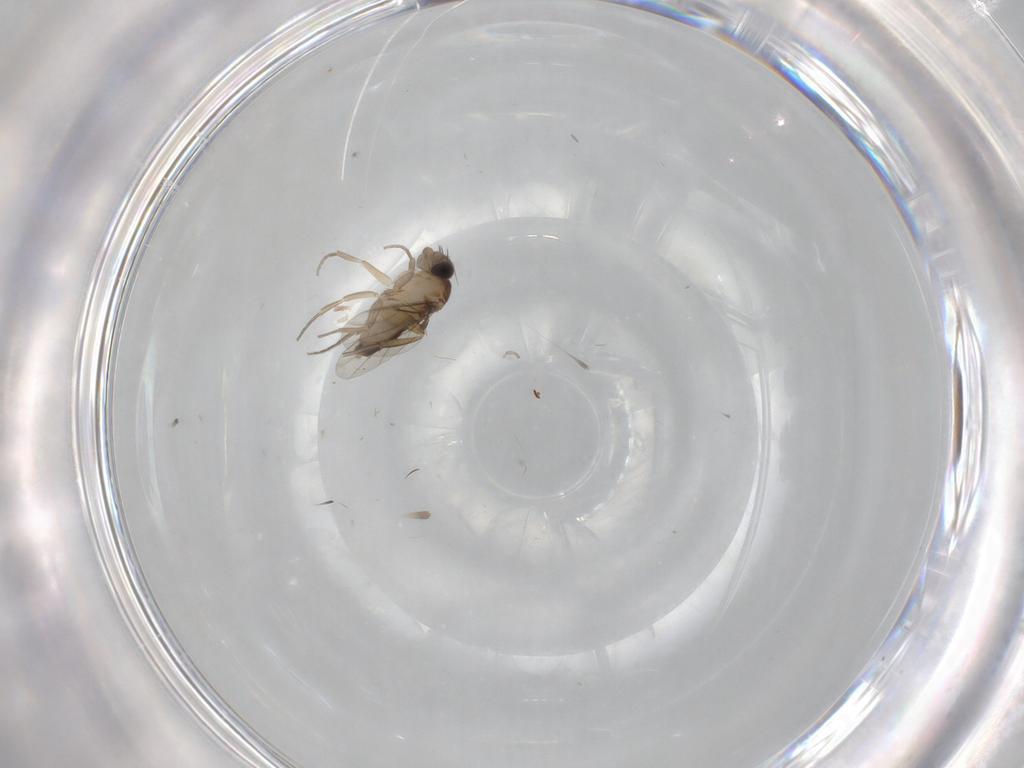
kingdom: Animalia
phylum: Arthropoda
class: Insecta
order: Diptera
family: Phoridae
